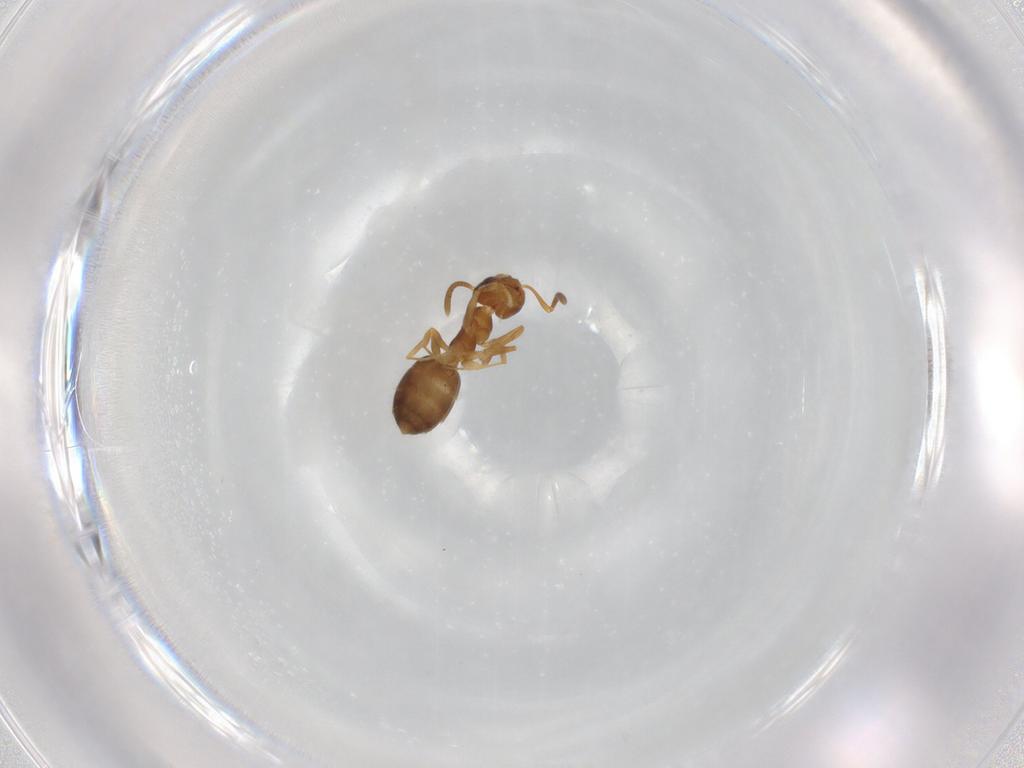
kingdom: Animalia
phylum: Arthropoda
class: Insecta
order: Hymenoptera
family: Formicidae
